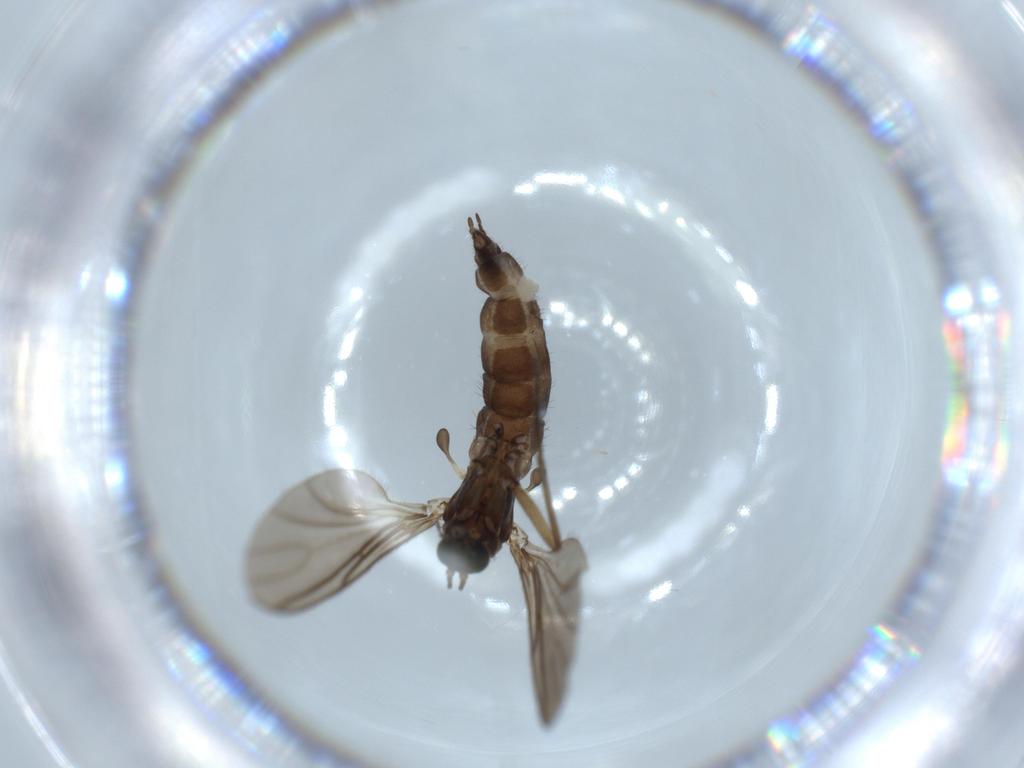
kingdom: Animalia
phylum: Arthropoda
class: Insecta
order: Diptera
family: Sciaridae
